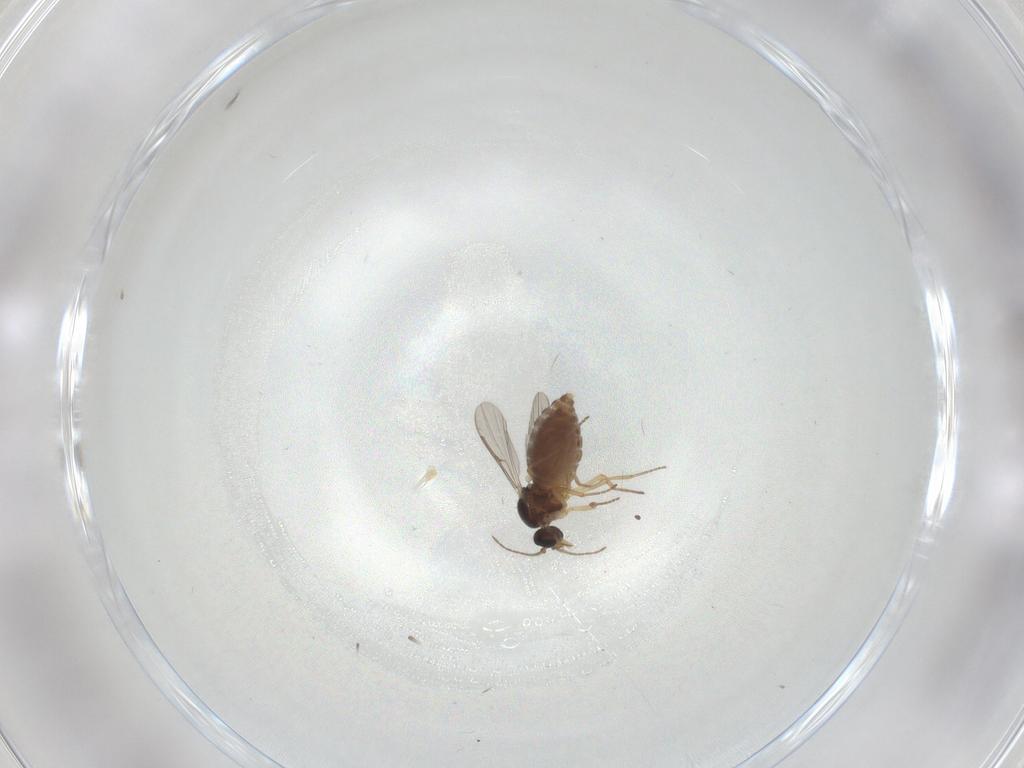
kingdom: Animalia
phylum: Arthropoda
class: Insecta
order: Diptera
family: Ceratopogonidae
